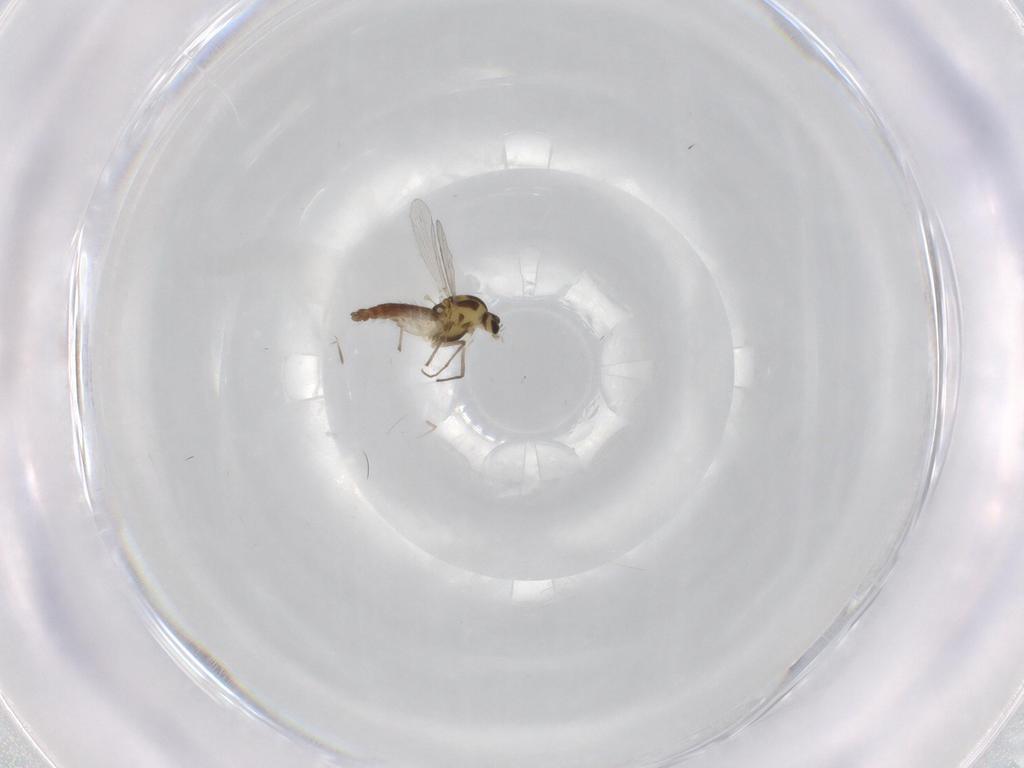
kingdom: Animalia
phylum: Arthropoda
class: Insecta
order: Diptera
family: Chironomidae
